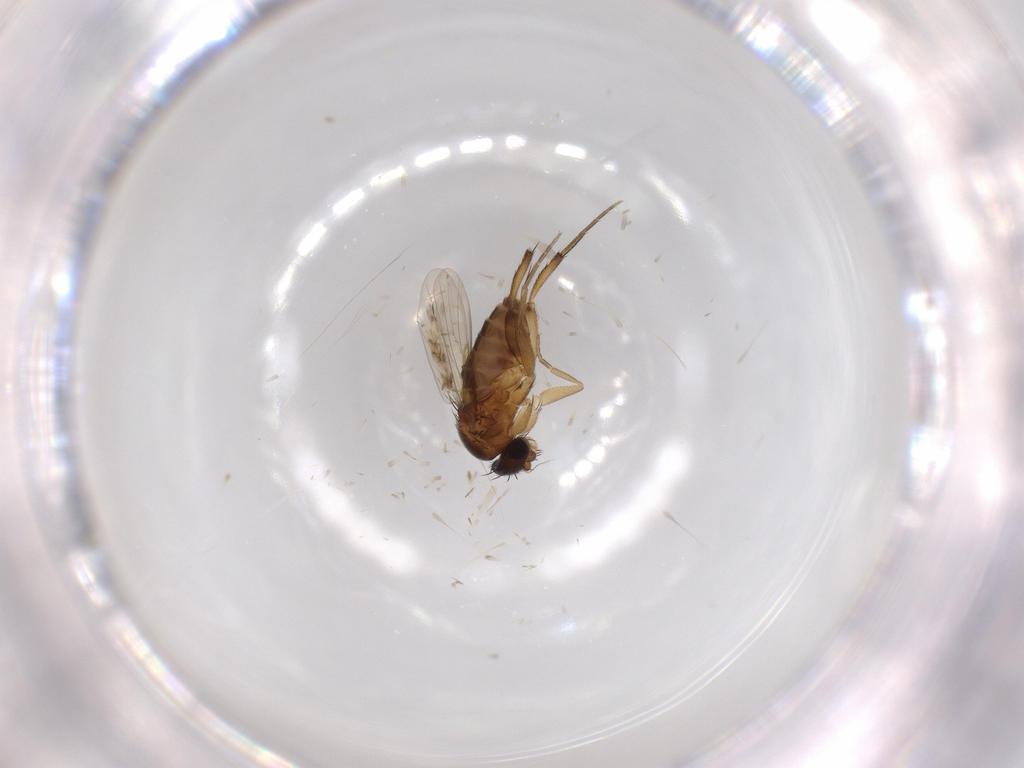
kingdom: Animalia
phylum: Arthropoda
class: Insecta
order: Diptera
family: Phoridae
